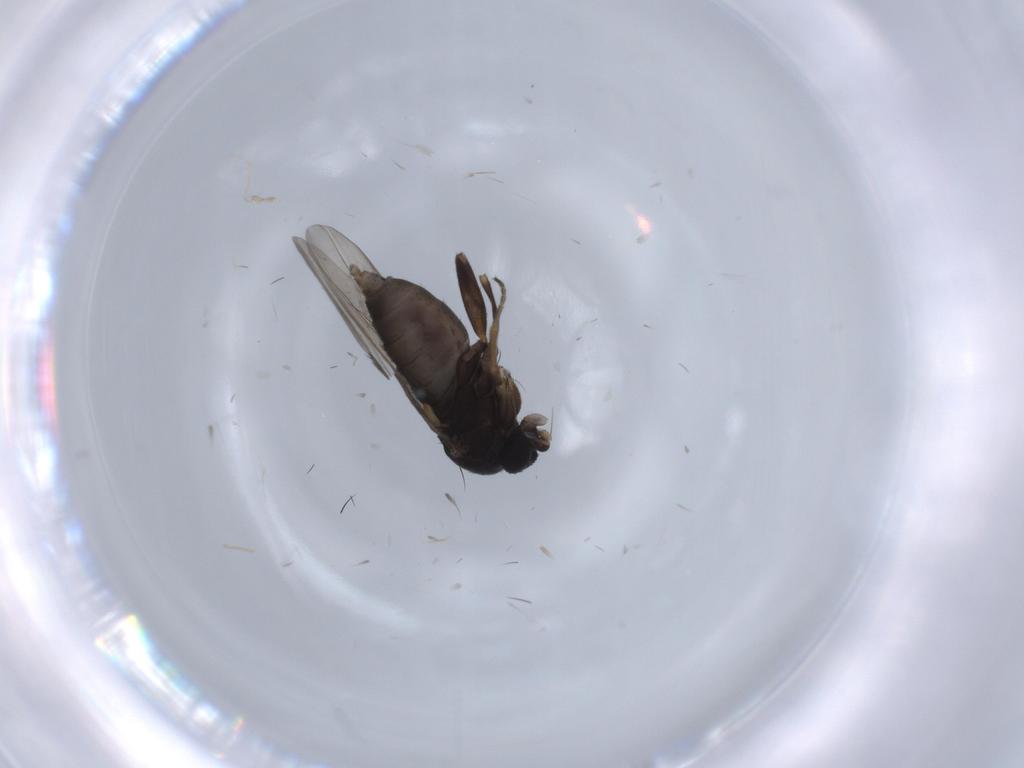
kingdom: Animalia
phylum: Arthropoda
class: Insecta
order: Diptera
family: Phoridae
